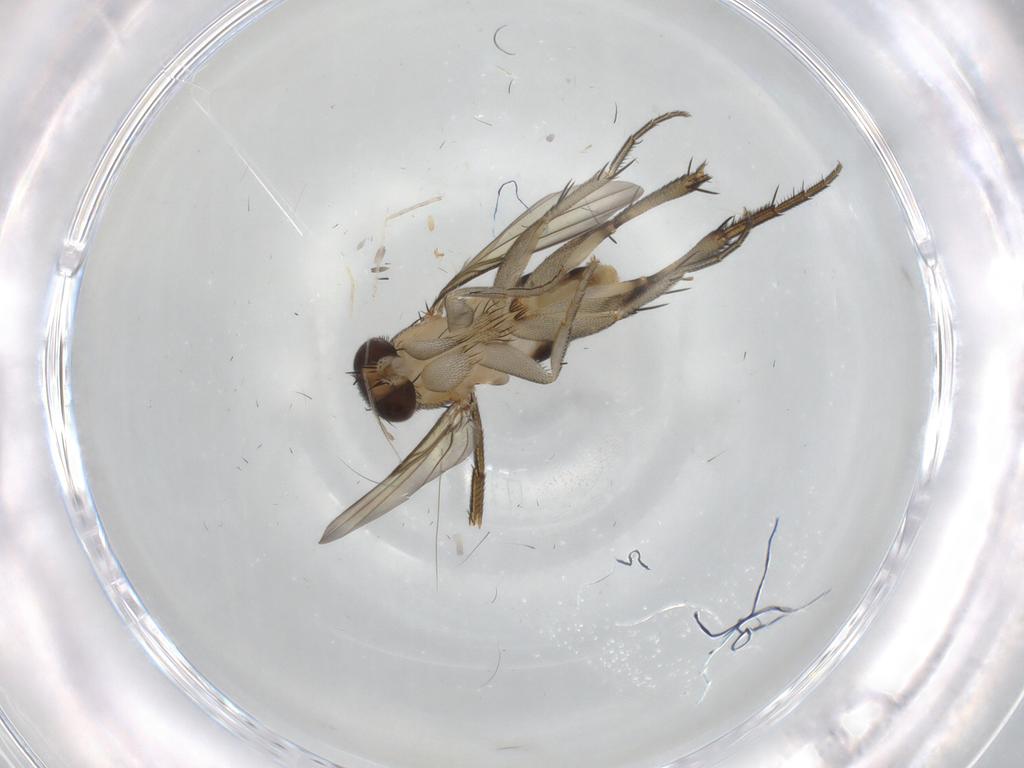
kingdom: Animalia
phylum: Arthropoda
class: Insecta
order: Diptera
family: Phoridae
